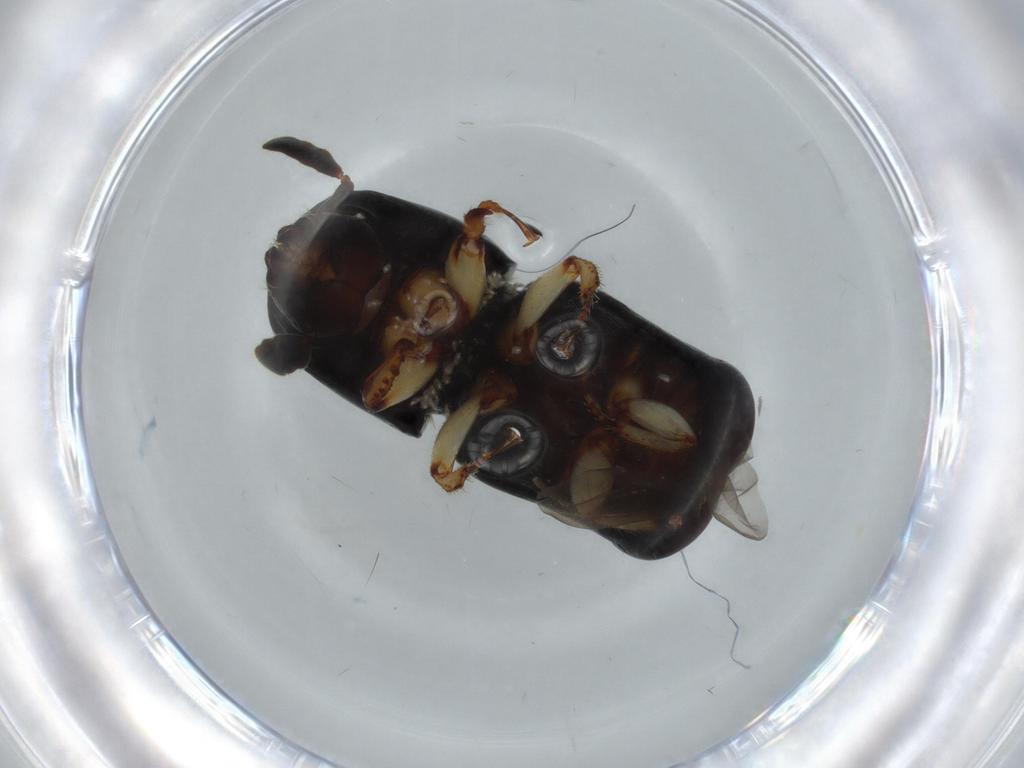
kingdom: Animalia
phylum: Arthropoda
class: Insecta
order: Coleoptera
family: Curculionidae
